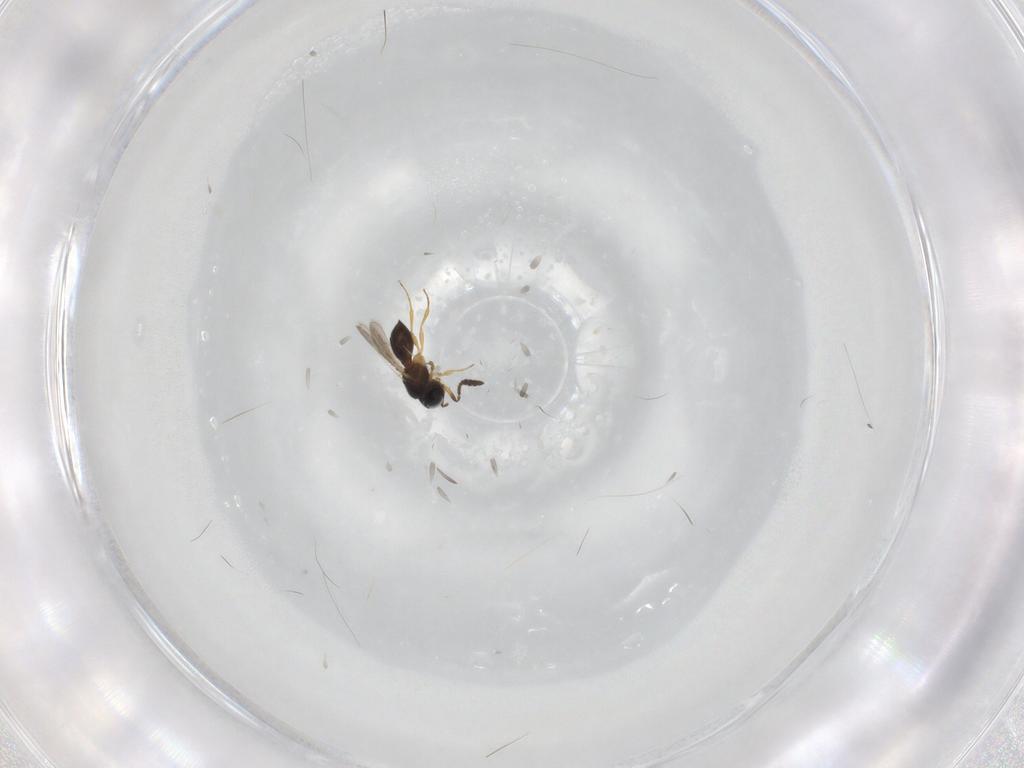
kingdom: Animalia
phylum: Arthropoda
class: Insecta
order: Hymenoptera
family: Scelionidae
